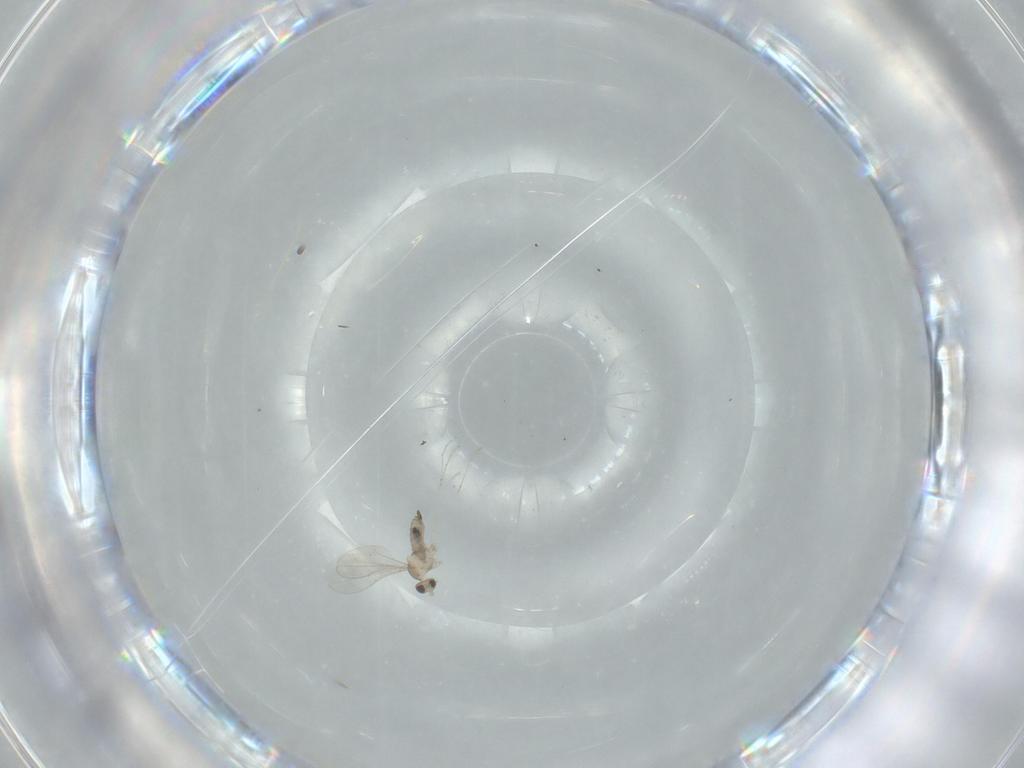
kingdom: Animalia
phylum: Arthropoda
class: Insecta
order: Diptera
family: Cecidomyiidae
